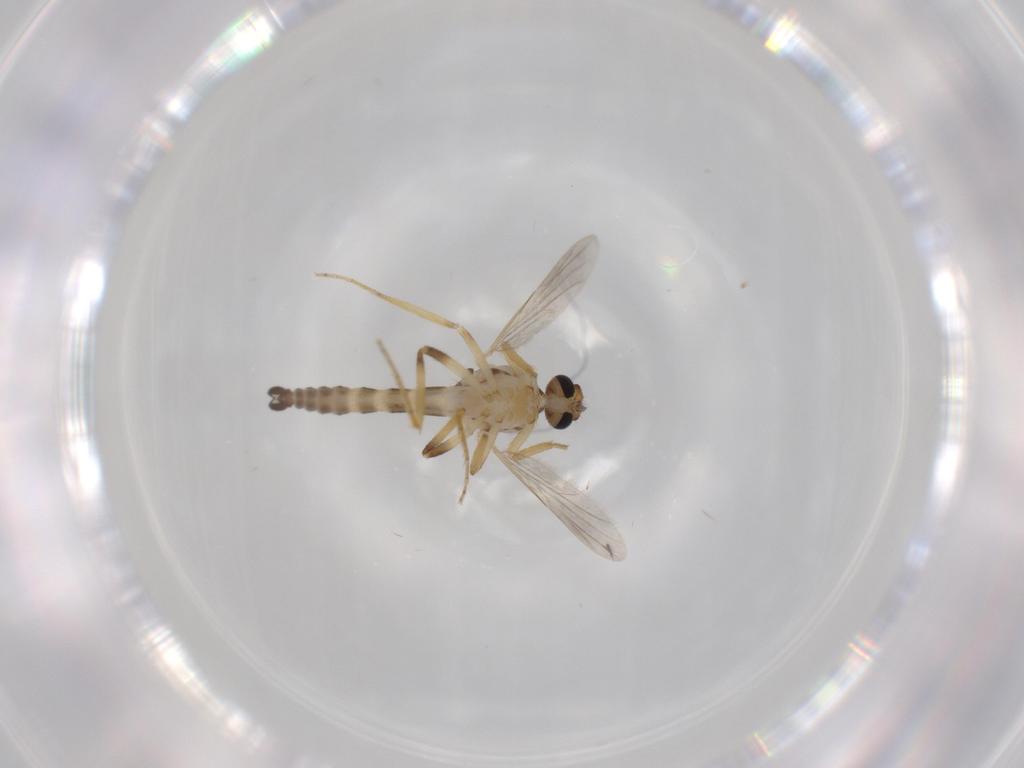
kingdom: Animalia
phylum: Arthropoda
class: Insecta
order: Diptera
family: Ceratopogonidae
